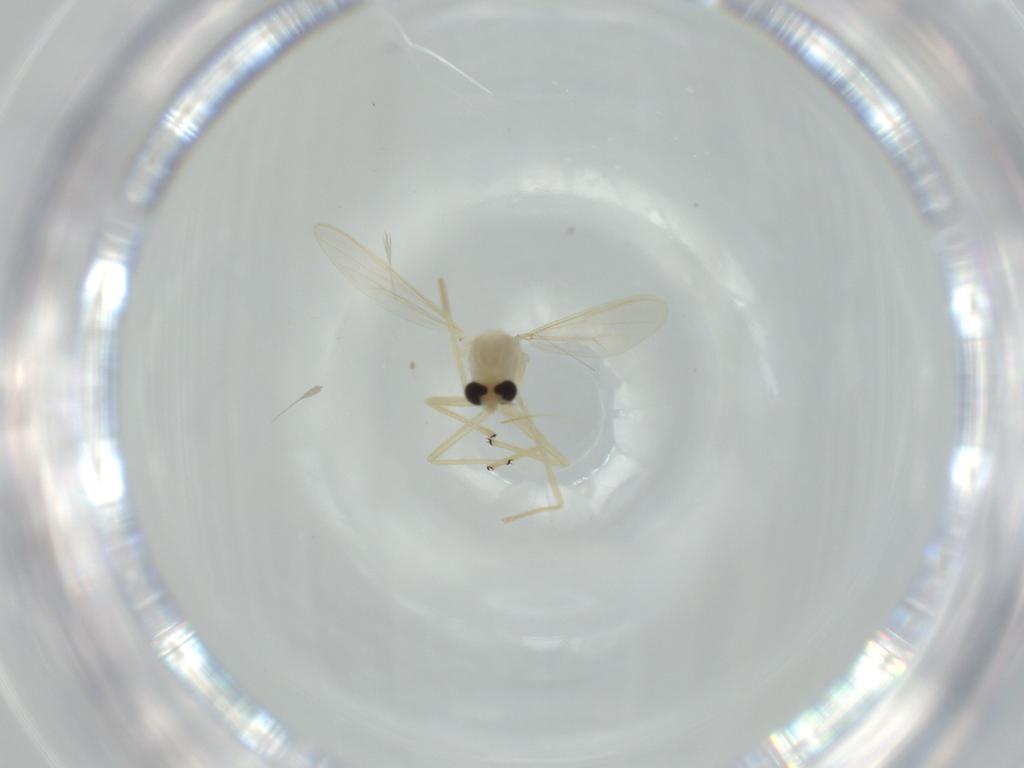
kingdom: Animalia
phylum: Arthropoda
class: Insecta
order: Diptera
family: Chironomidae
